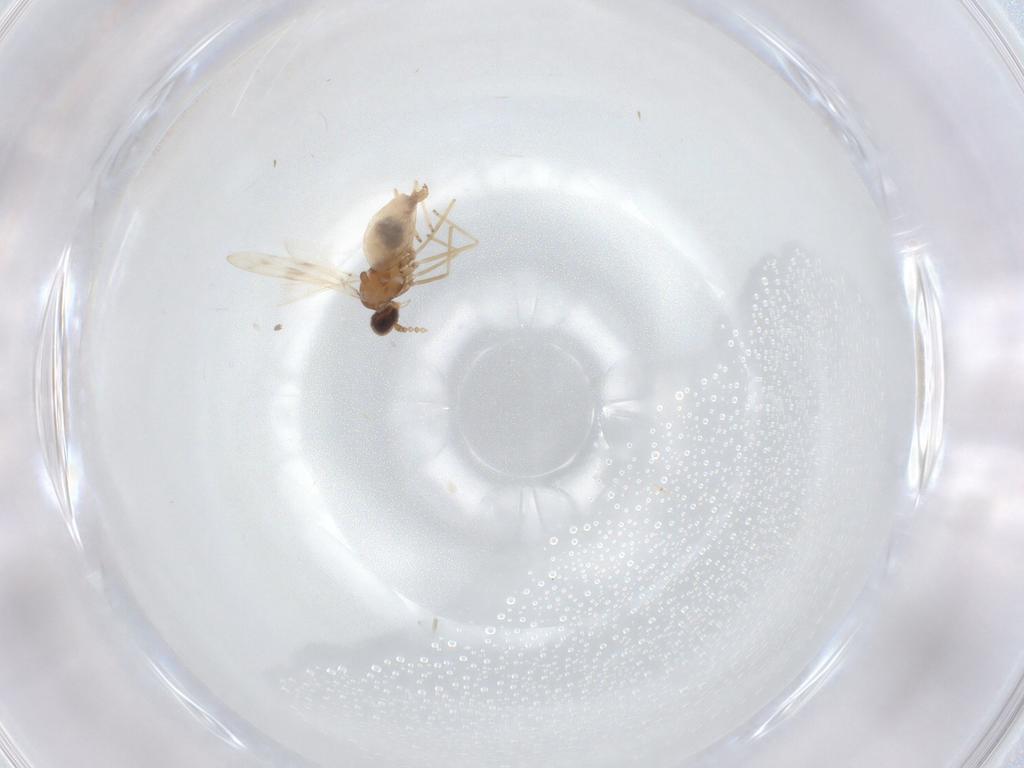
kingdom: Animalia
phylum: Arthropoda
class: Insecta
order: Diptera
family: Cecidomyiidae
